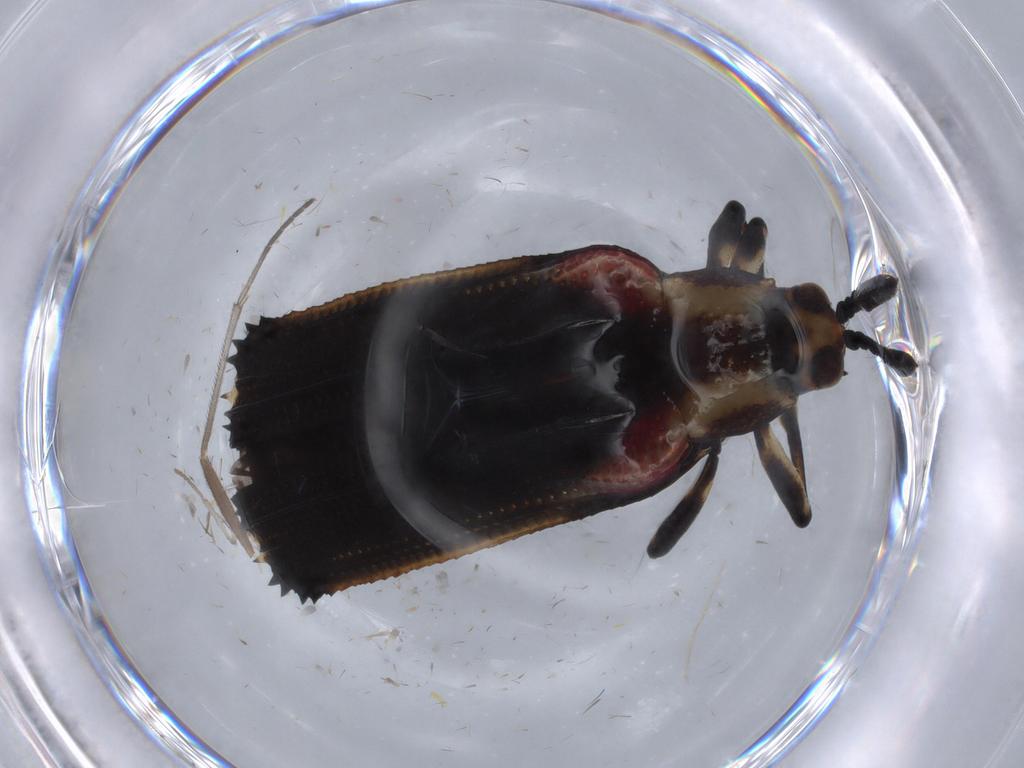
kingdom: Animalia
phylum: Arthropoda
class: Insecta
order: Coleoptera
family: Chrysomelidae
